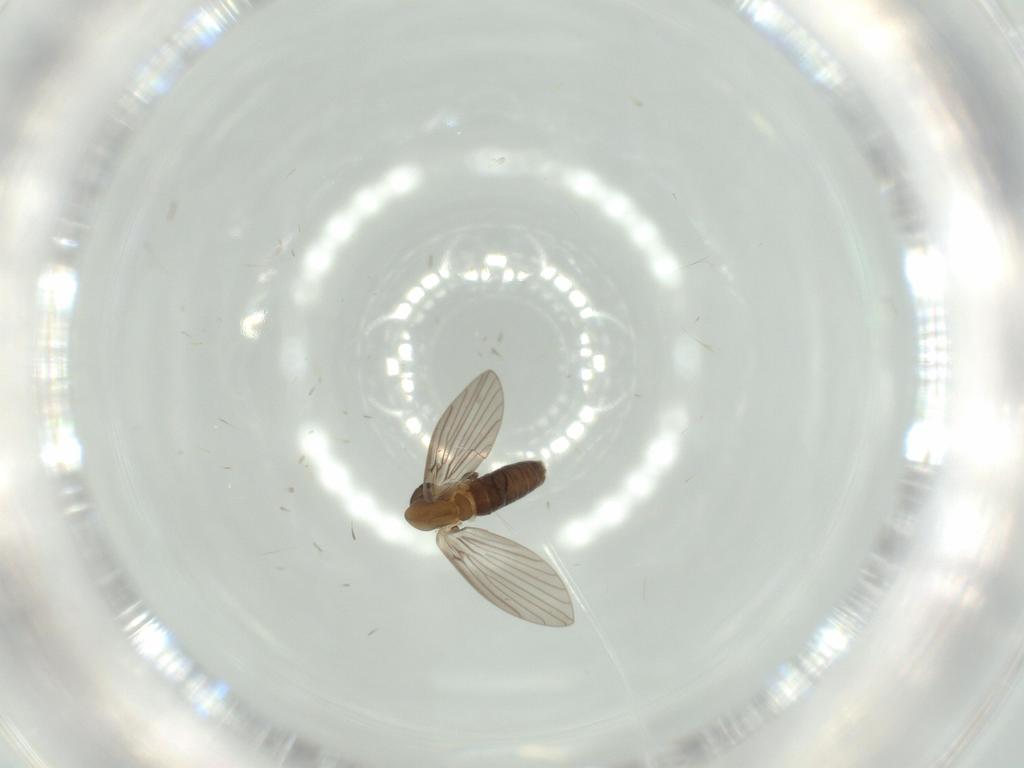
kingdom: Animalia
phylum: Arthropoda
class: Insecta
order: Diptera
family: Psychodidae
